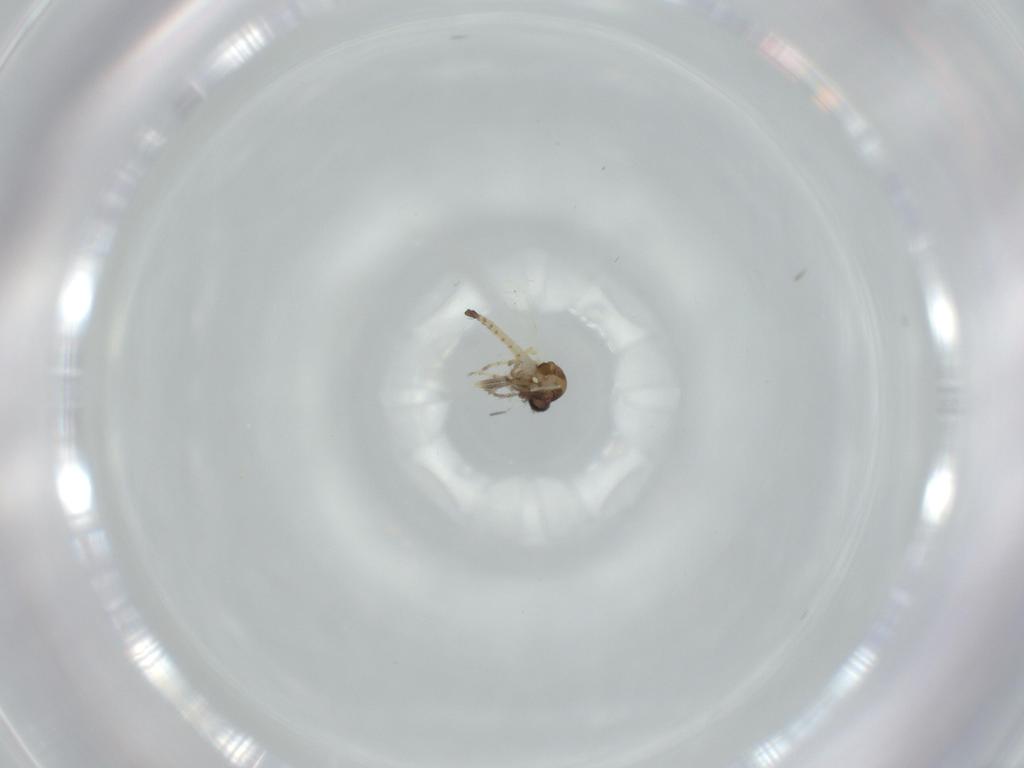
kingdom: Animalia
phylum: Arthropoda
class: Insecta
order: Diptera
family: Ceratopogonidae
